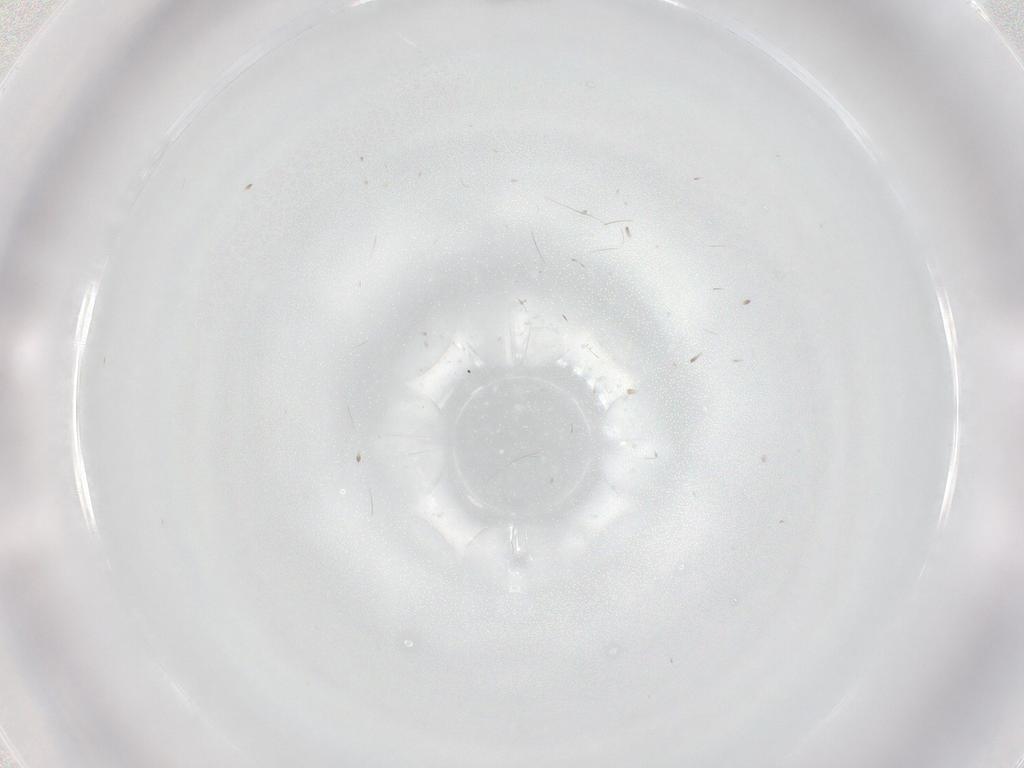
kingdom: Animalia
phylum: Arthropoda
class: Insecta
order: Hymenoptera
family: Scelionidae
